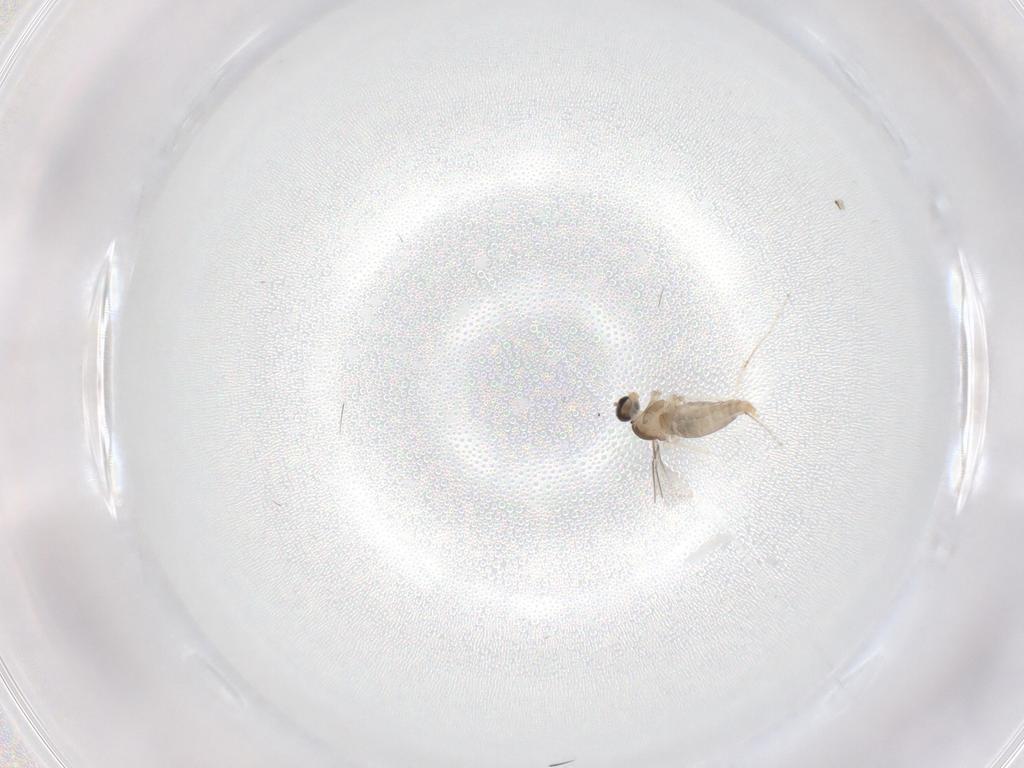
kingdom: Animalia
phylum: Arthropoda
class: Insecta
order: Diptera
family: Cecidomyiidae
